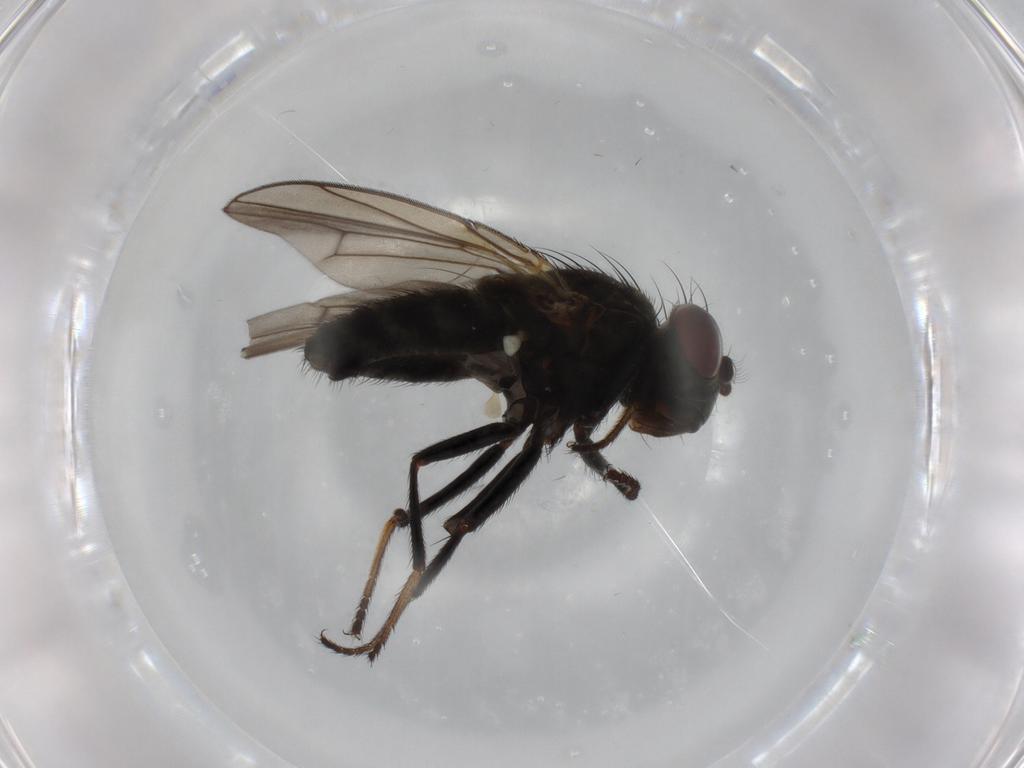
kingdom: Animalia
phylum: Arthropoda
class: Insecta
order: Diptera
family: Ephydridae
